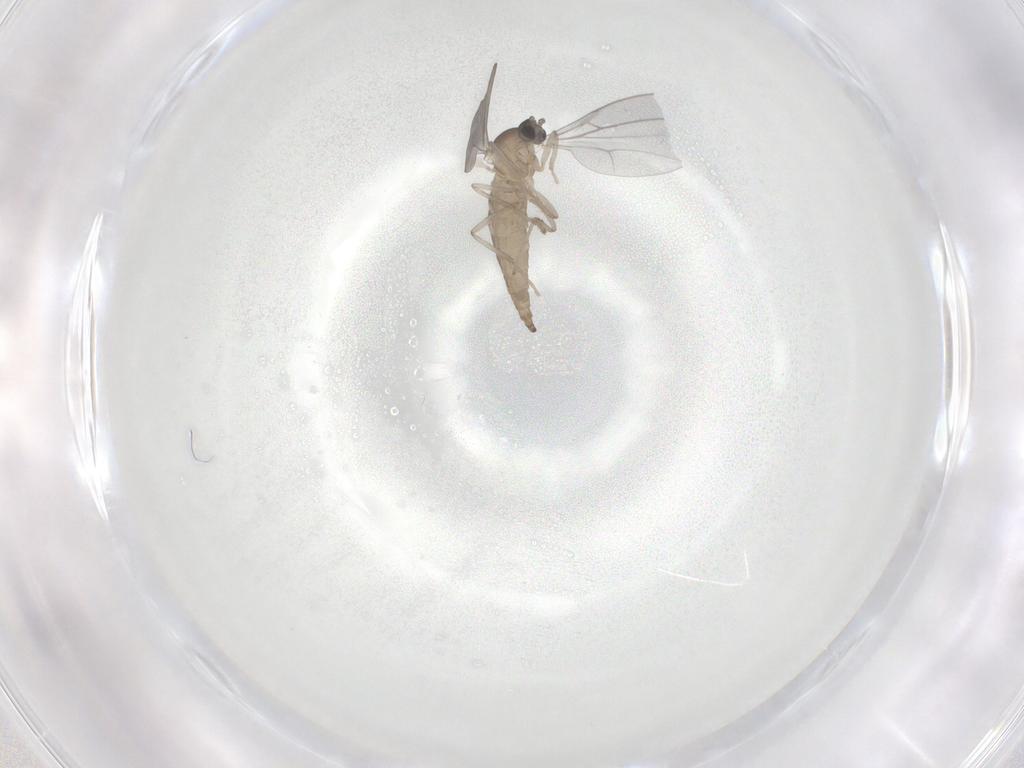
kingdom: Animalia
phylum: Arthropoda
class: Insecta
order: Diptera
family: Cecidomyiidae
